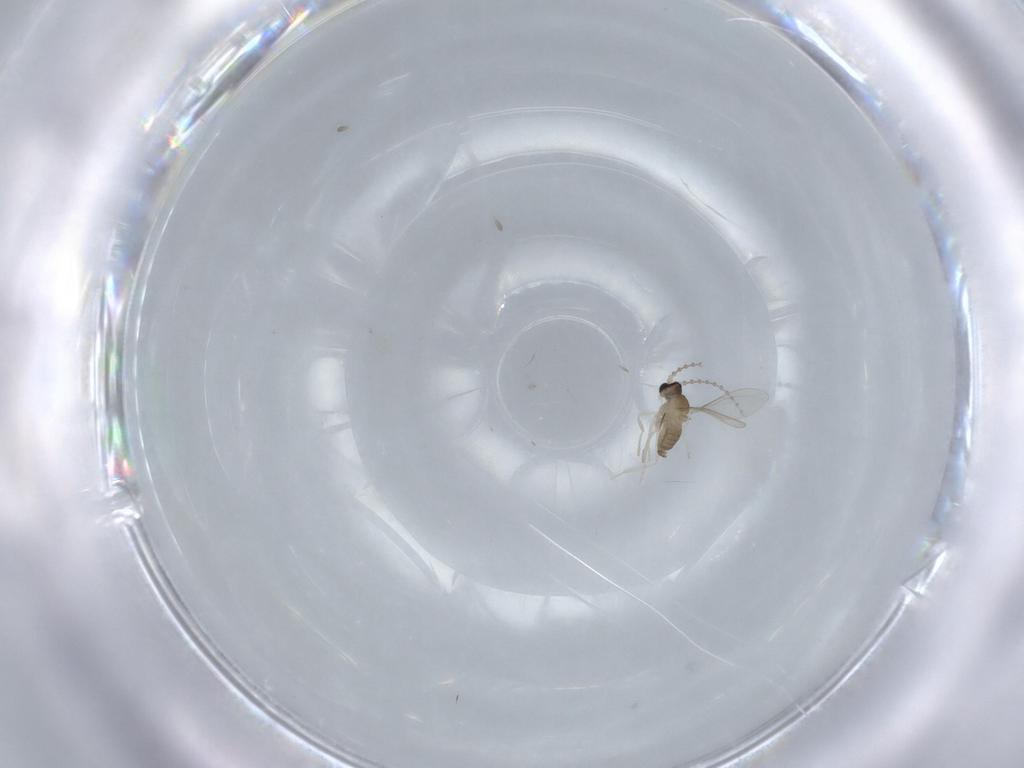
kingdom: Animalia
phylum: Arthropoda
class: Insecta
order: Diptera
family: Cecidomyiidae
